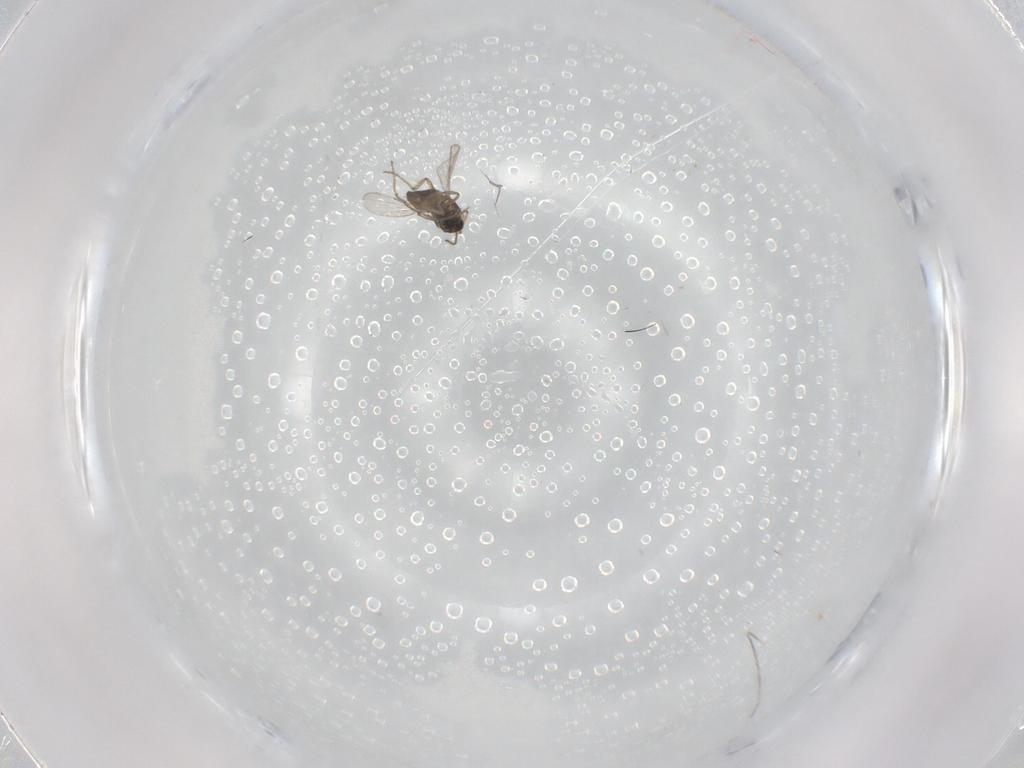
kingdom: Animalia
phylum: Arthropoda
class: Insecta
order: Diptera
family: Ceratopogonidae
